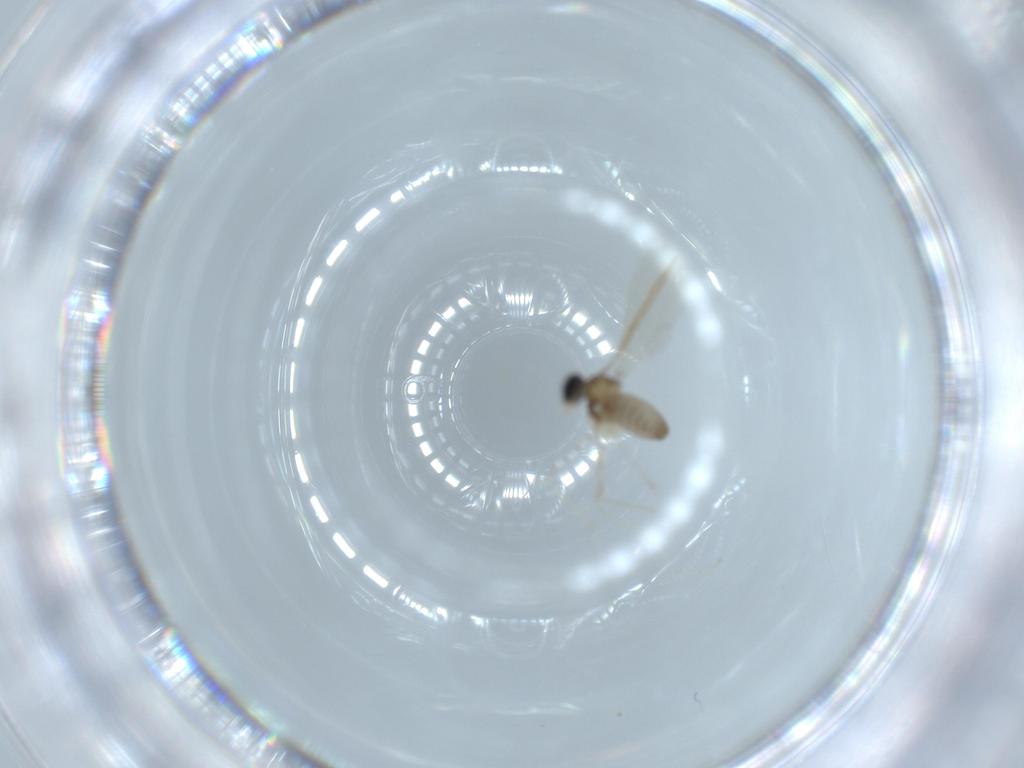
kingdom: Animalia
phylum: Arthropoda
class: Insecta
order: Diptera
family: Cecidomyiidae
